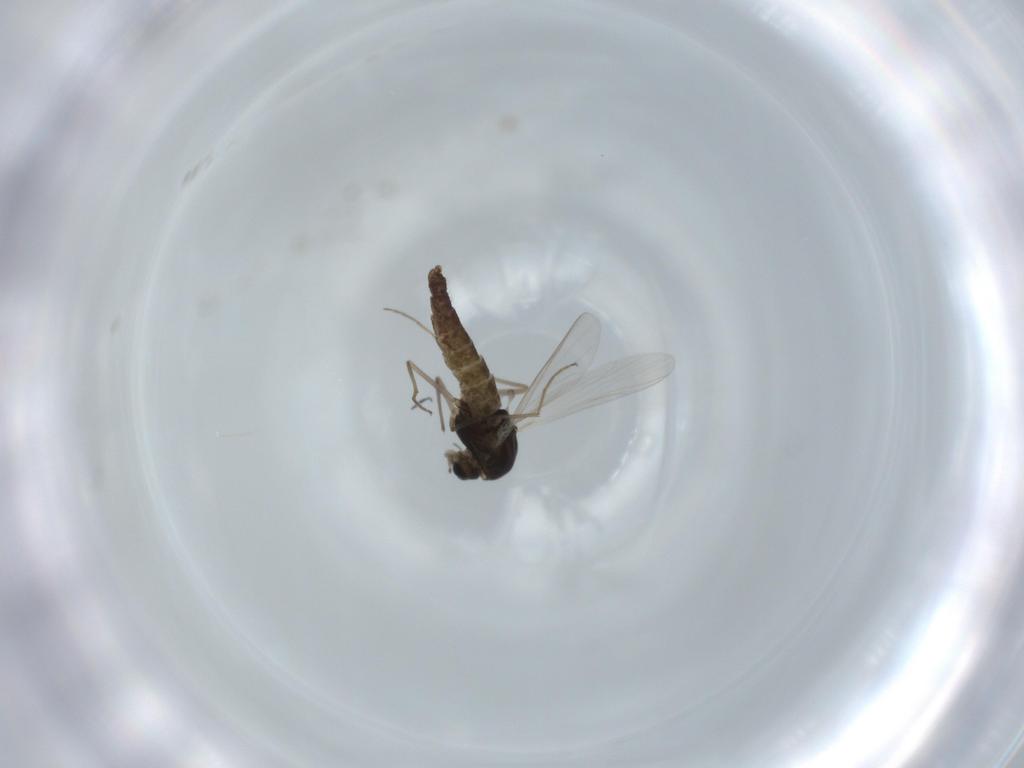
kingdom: Animalia
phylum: Arthropoda
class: Insecta
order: Diptera
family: Chironomidae
